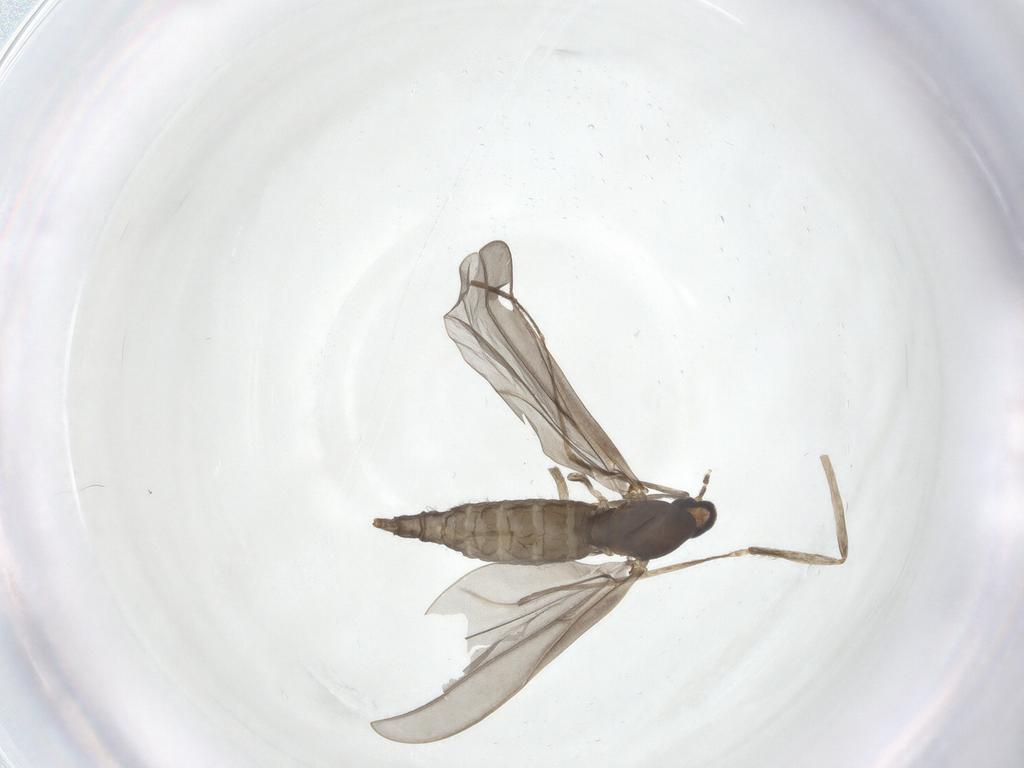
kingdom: Animalia
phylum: Arthropoda
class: Insecta
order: Diptera
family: Cecidomyiidae
